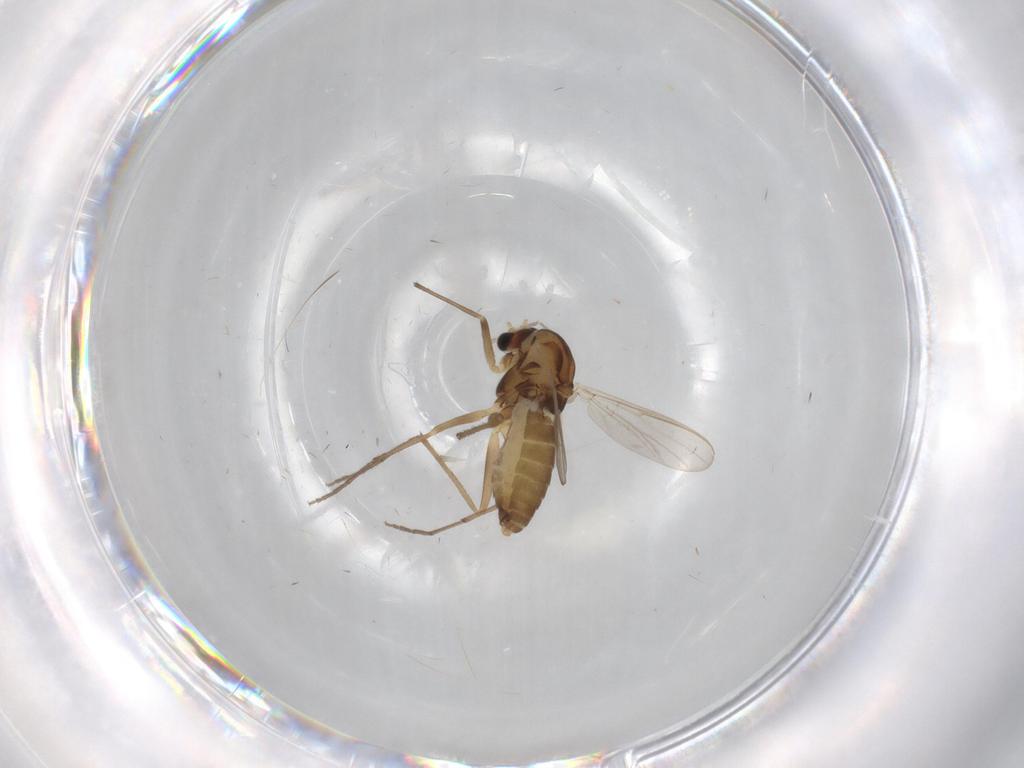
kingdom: Animalia
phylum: Arthropoda
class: Insecta
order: Diptera
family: Chironomidae
